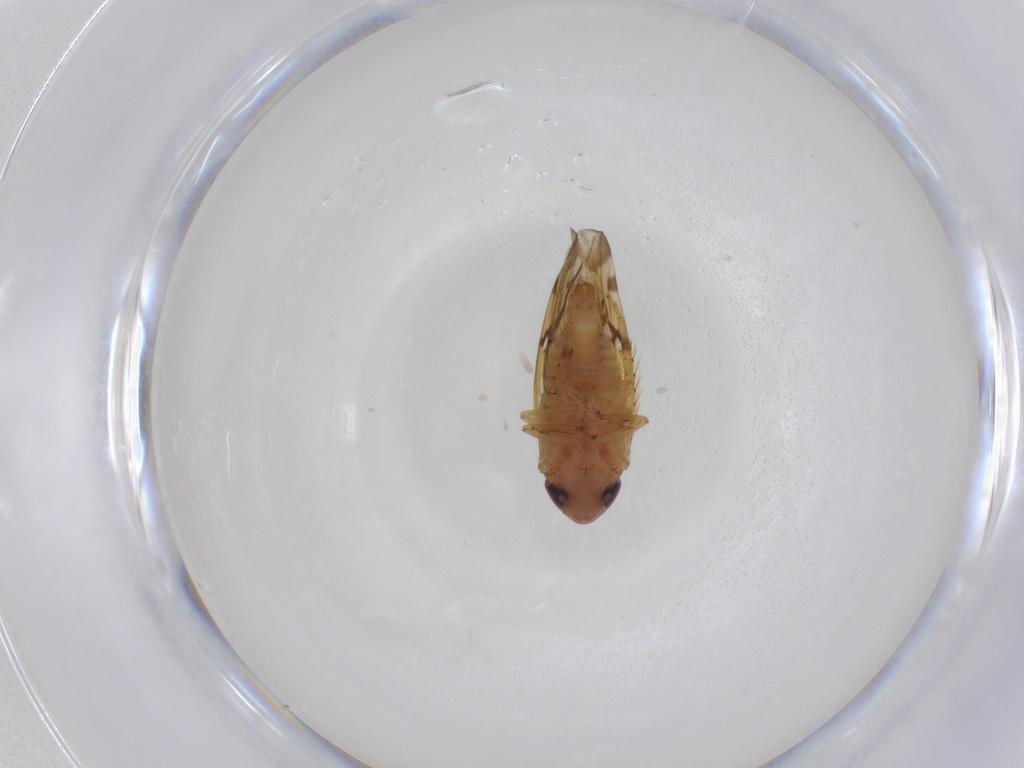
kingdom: Animalia
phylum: Arthropoda
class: Insecta
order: Hemiptera
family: Cicadellidae
